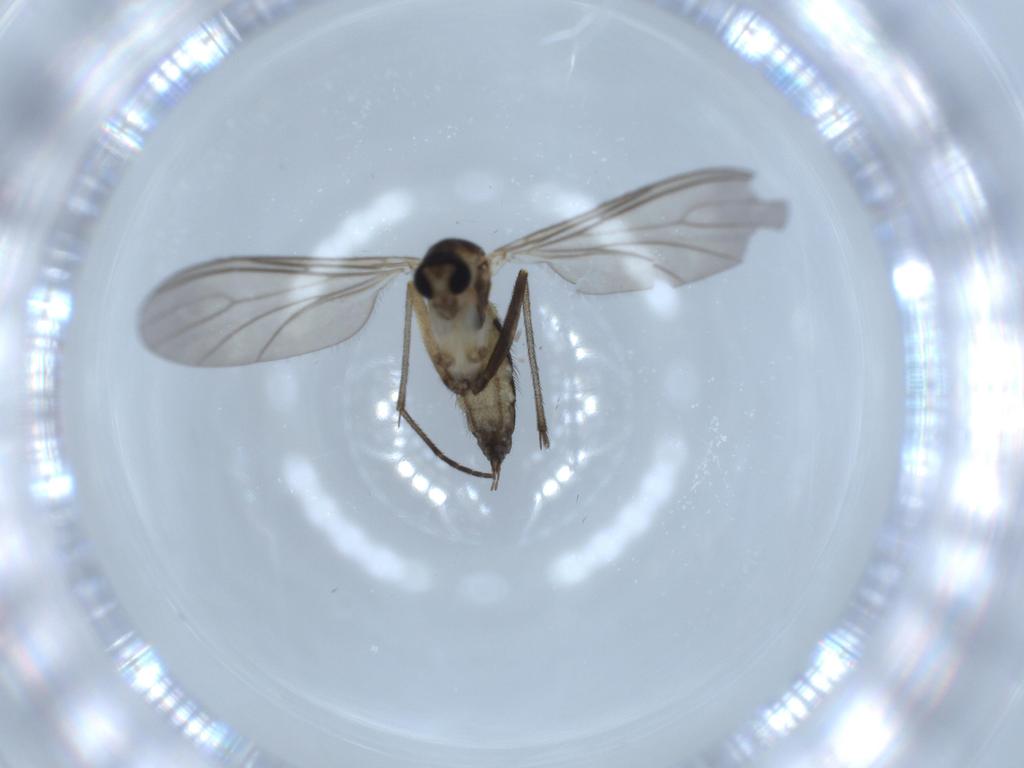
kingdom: Animalia
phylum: Arthropoda
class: Insecta
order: Diptera
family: Sciaridae
